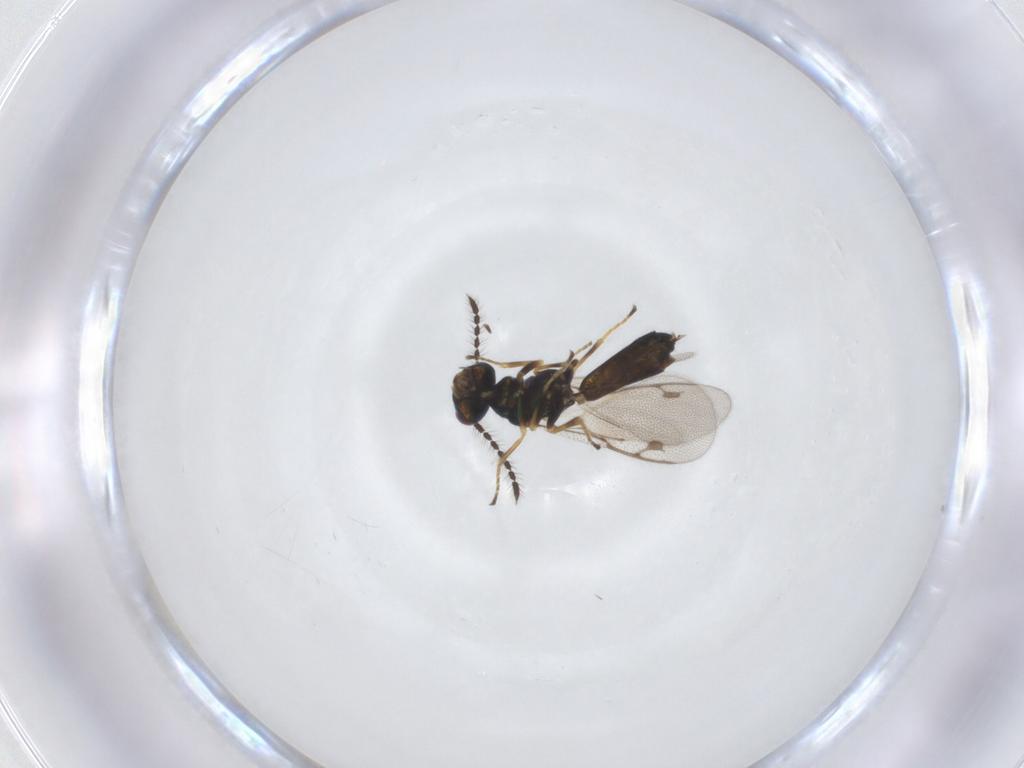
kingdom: Animalia
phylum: Arthropoda
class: Insecta
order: Hymenoptera
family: Pirenidae
